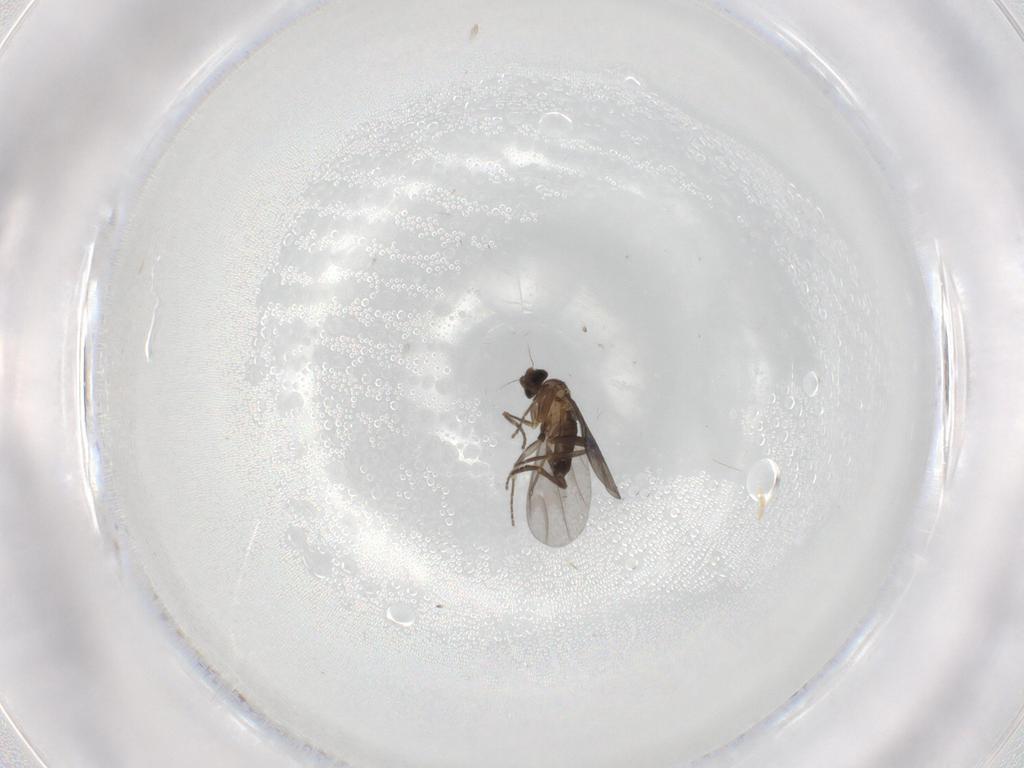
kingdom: Animalia
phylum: Arthropoda
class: Insecta
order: Diptera
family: Phoridae
